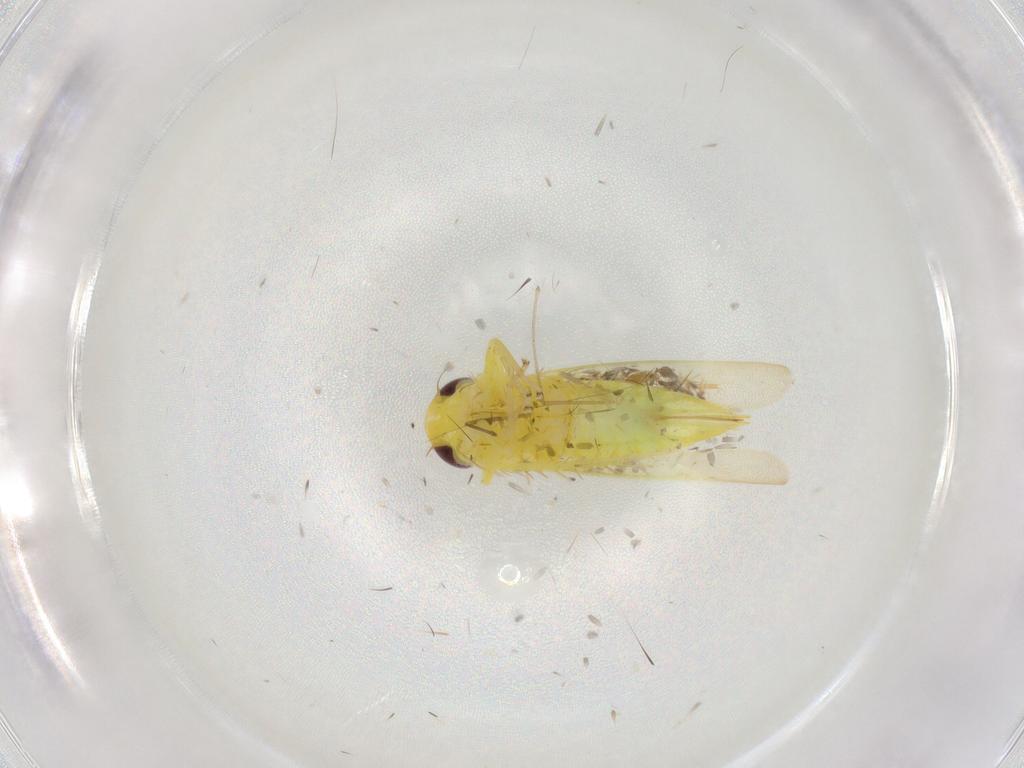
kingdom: Animalia
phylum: Arthropoda
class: Insecta
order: Hemiptera
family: Cicadellidae
